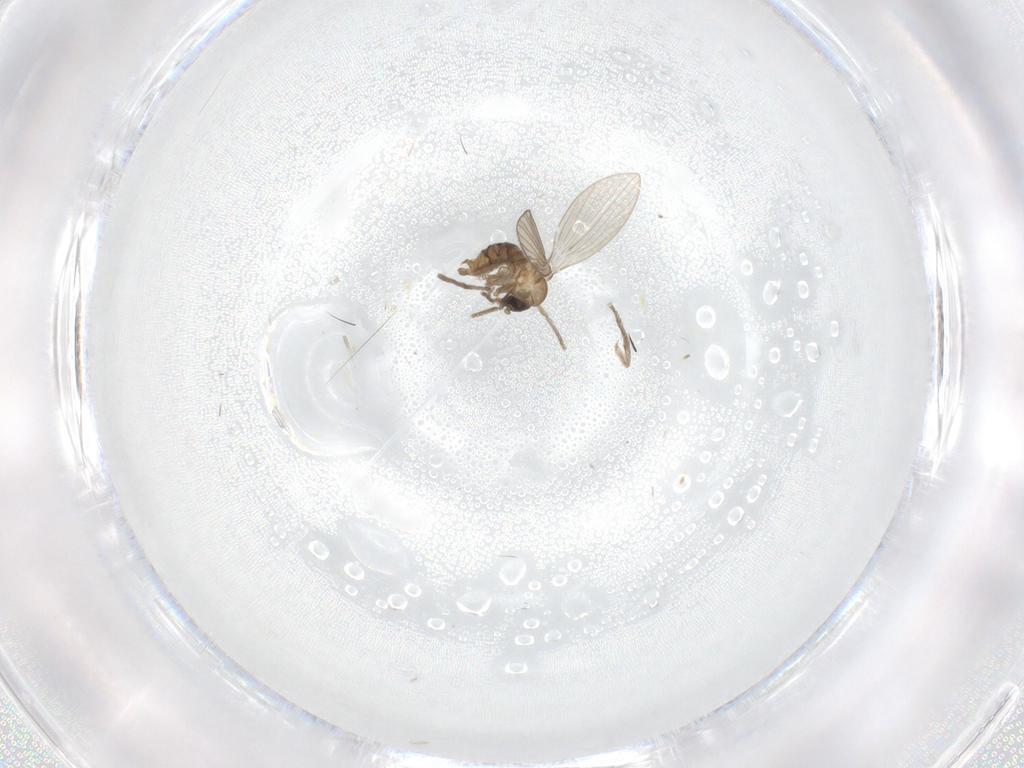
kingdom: Animalia
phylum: Arthropoda
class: Insecta
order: Diptera
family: Psychodidae
